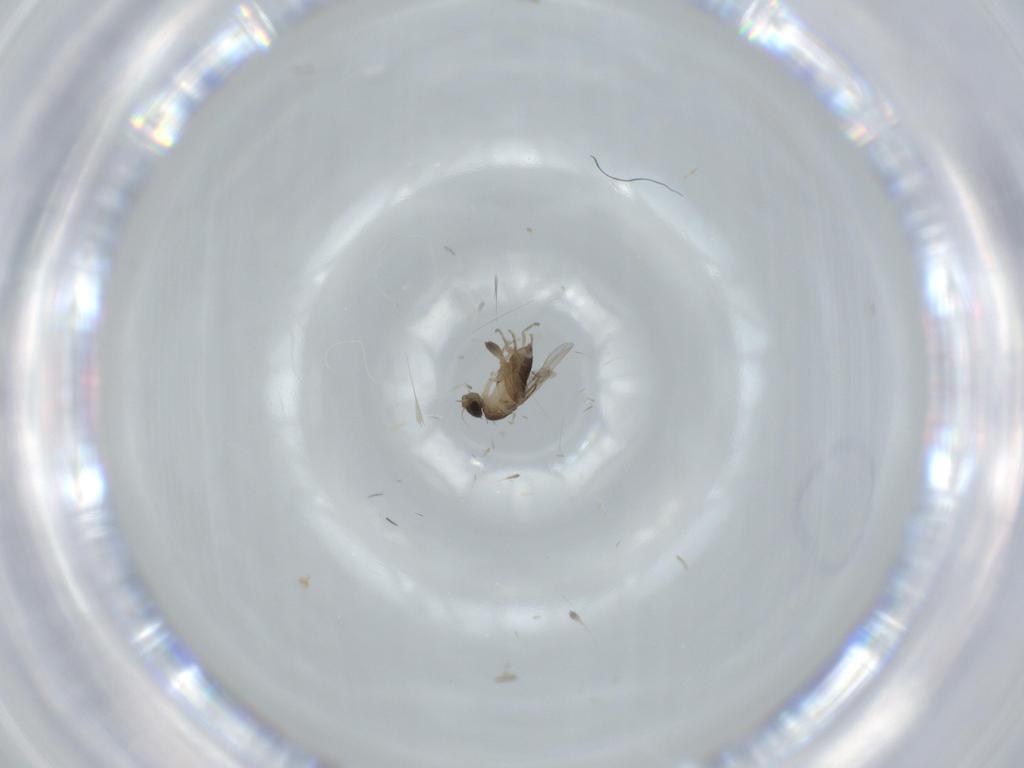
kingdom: Animalia
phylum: Arthropoda
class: Insecta
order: Diptera
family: Phoridae
